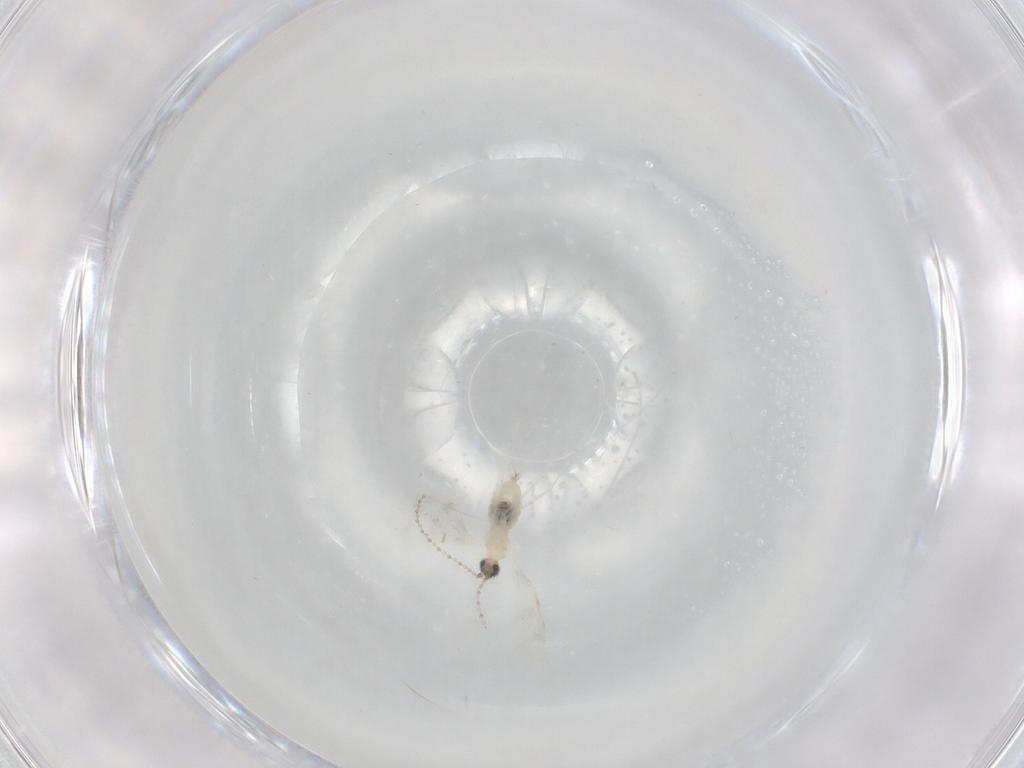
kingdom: Animalia
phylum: Arthropoda
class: Insecta
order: Diptera
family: Cecidomyiidae
